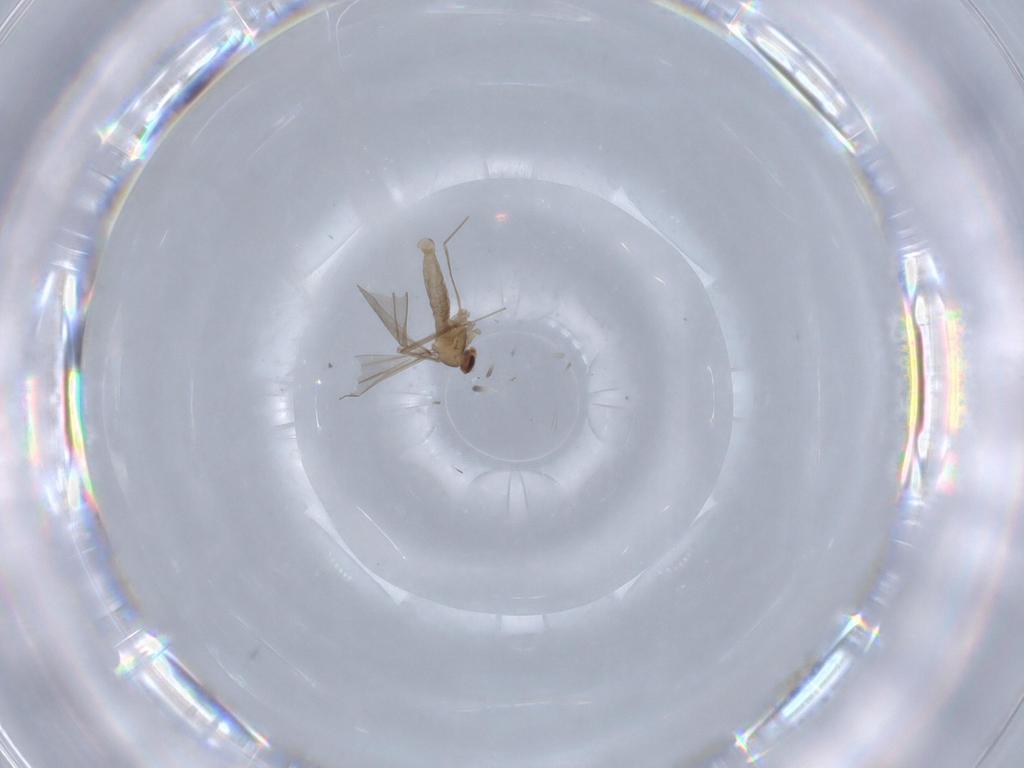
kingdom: Animalia
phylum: Arthropoda
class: Insecta
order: Diptera
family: Cecidomyiidae
